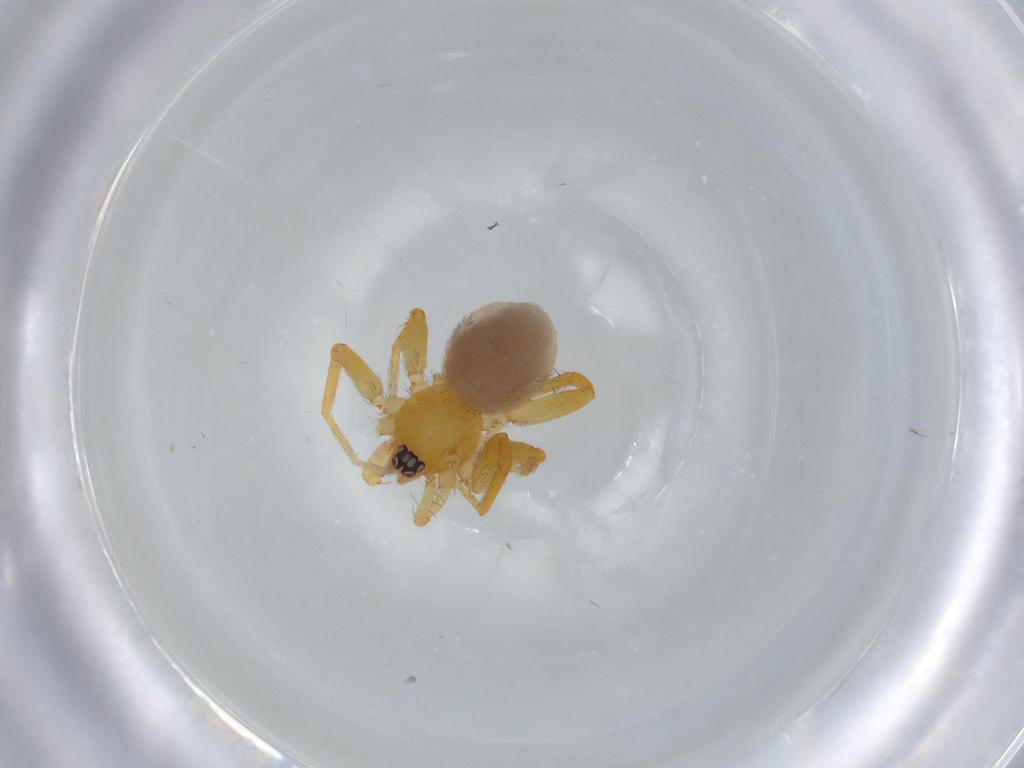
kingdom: Animalia
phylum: Arthropoda
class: Arachnida
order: Araneae
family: Oonopidae
